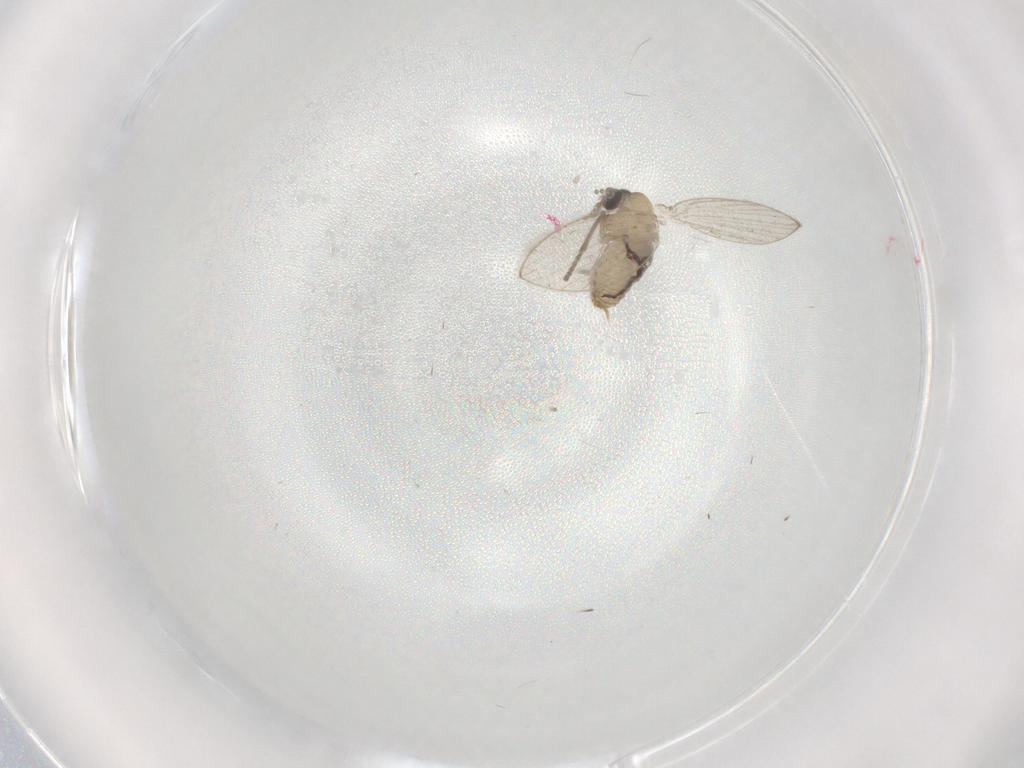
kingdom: Animalia
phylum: Arthropoda
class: Insecta
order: Diptera
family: Psychodidae
